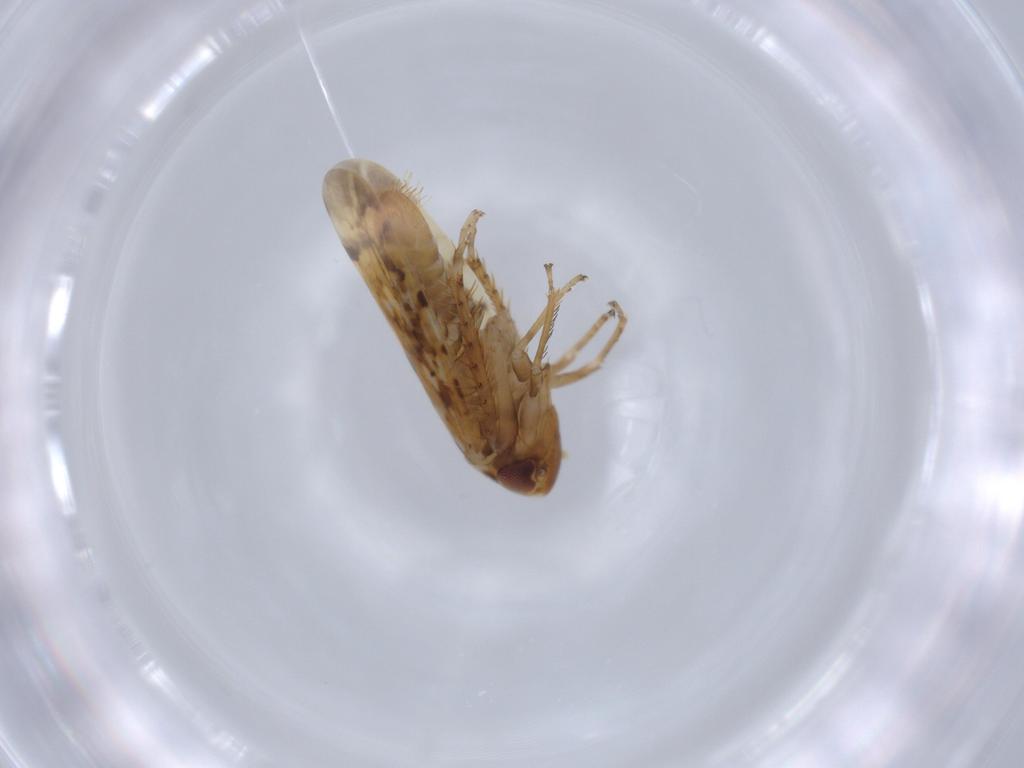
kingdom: Animalia
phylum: Arthropoda
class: Insecta
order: Hemiptera
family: Cicadellidae
